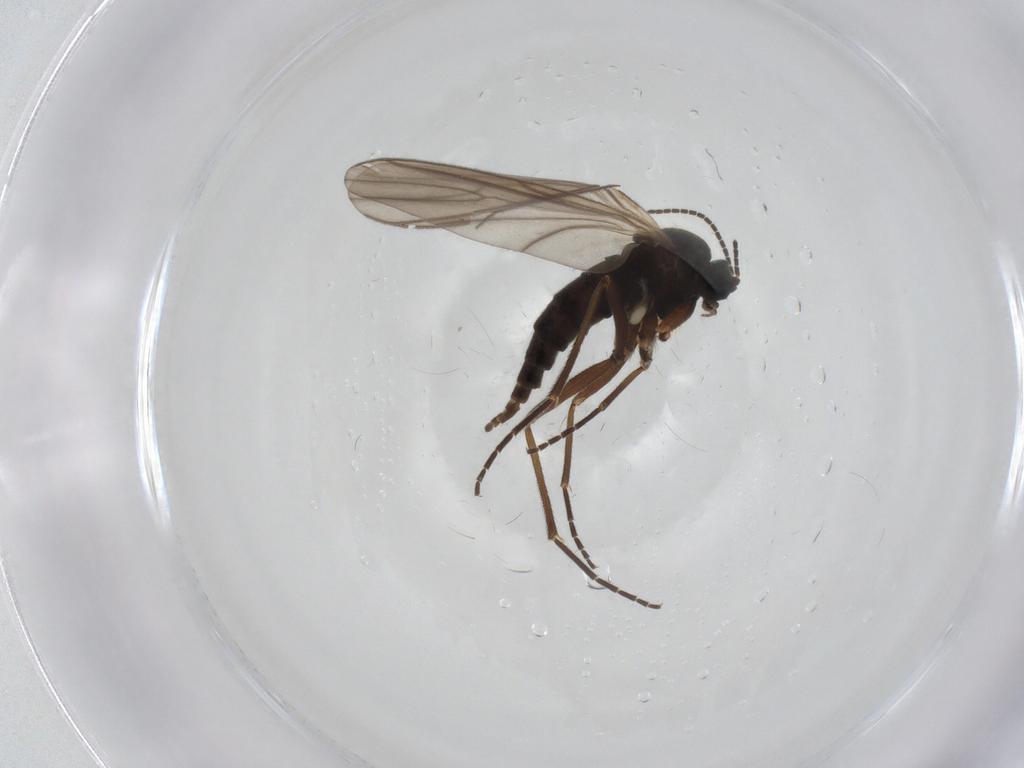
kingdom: Animalia
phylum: Arthropoda
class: Insecta
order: Diptera
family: Sciaridae
